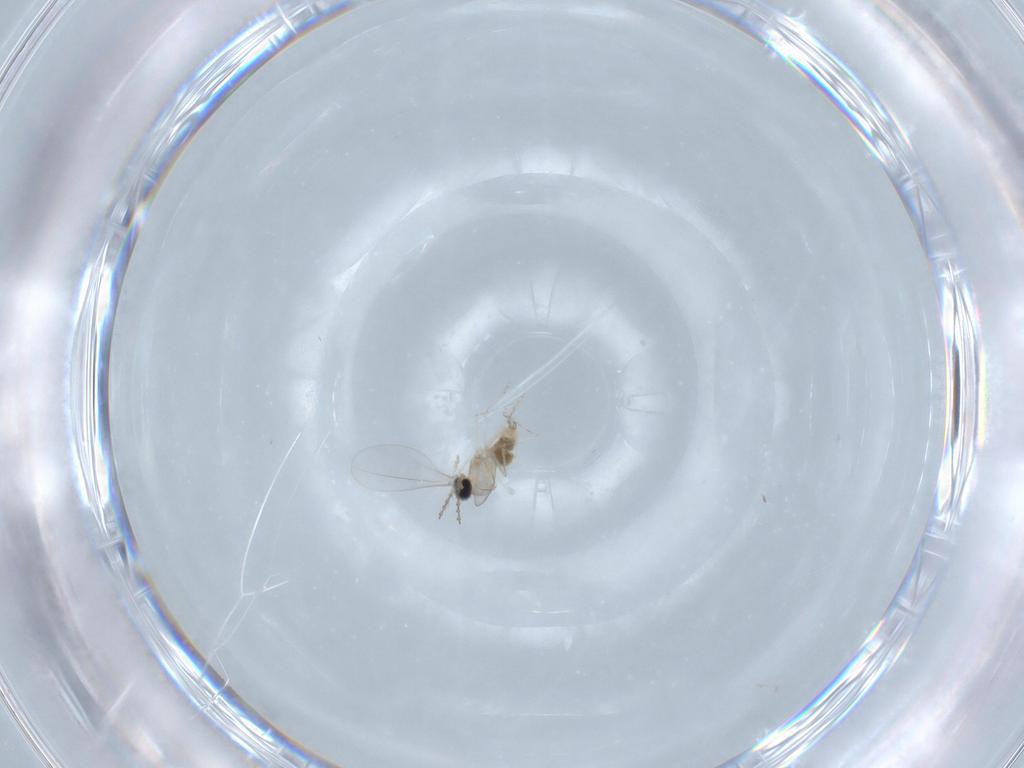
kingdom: Animalia
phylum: Arthropoda
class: Insecta
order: Diptera
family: Cecidomyiidae
